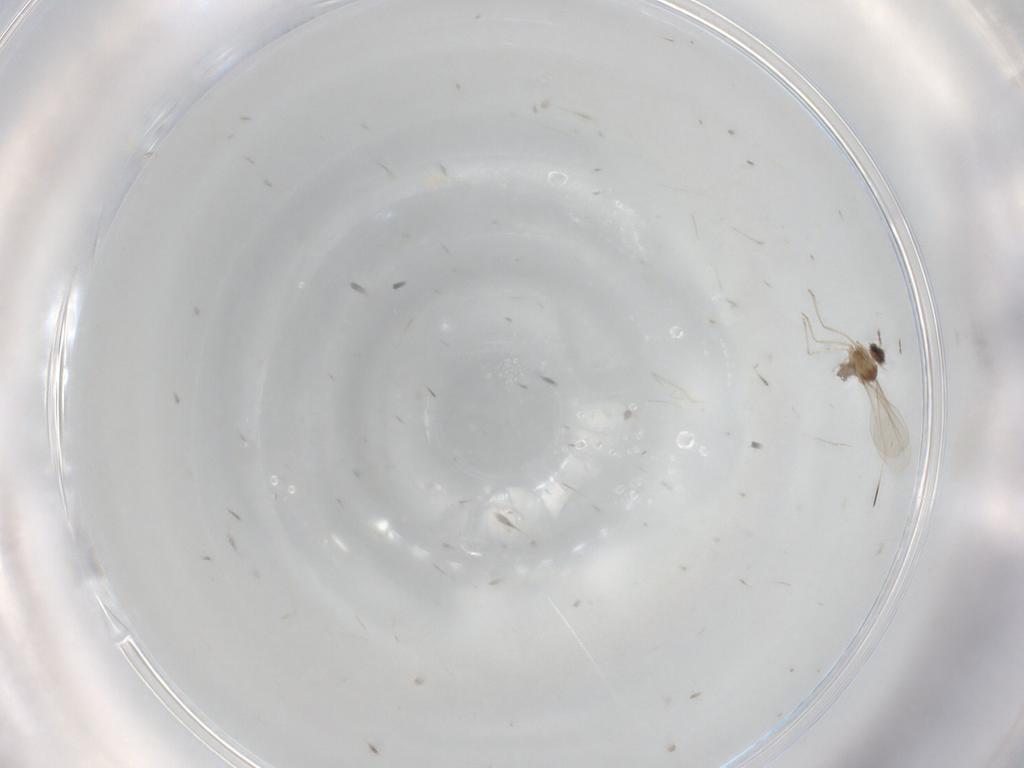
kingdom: Animalia
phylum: Arthropoda
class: Insecta
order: Diptera
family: Cecidomyiidae
